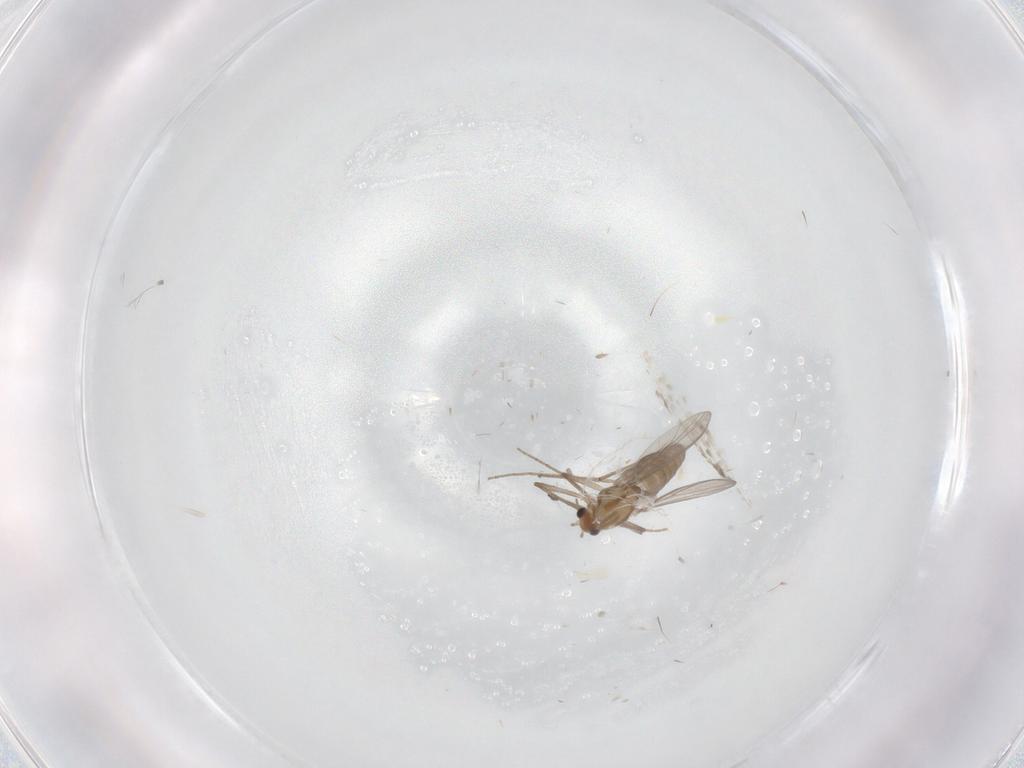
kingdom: Animalia
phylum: Arthropoda
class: Insecta
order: Diptera
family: Chironomidae
